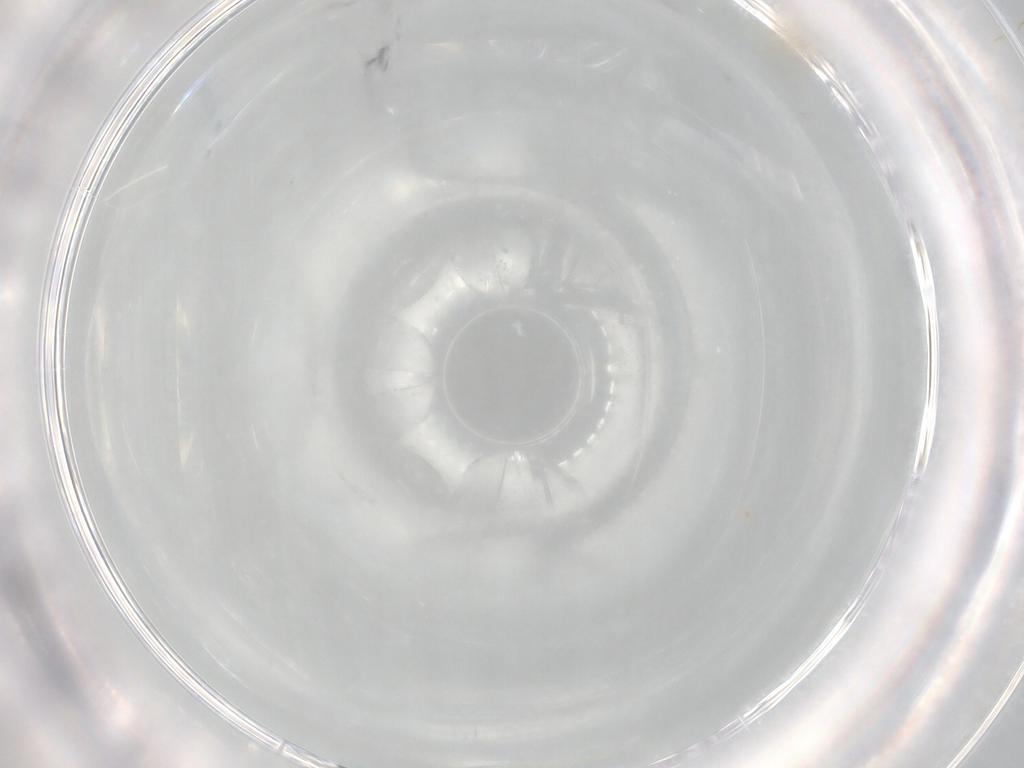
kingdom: Animalia
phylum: Arthropoda
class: Insecta
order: Diptera
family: Cecidomyiidae
